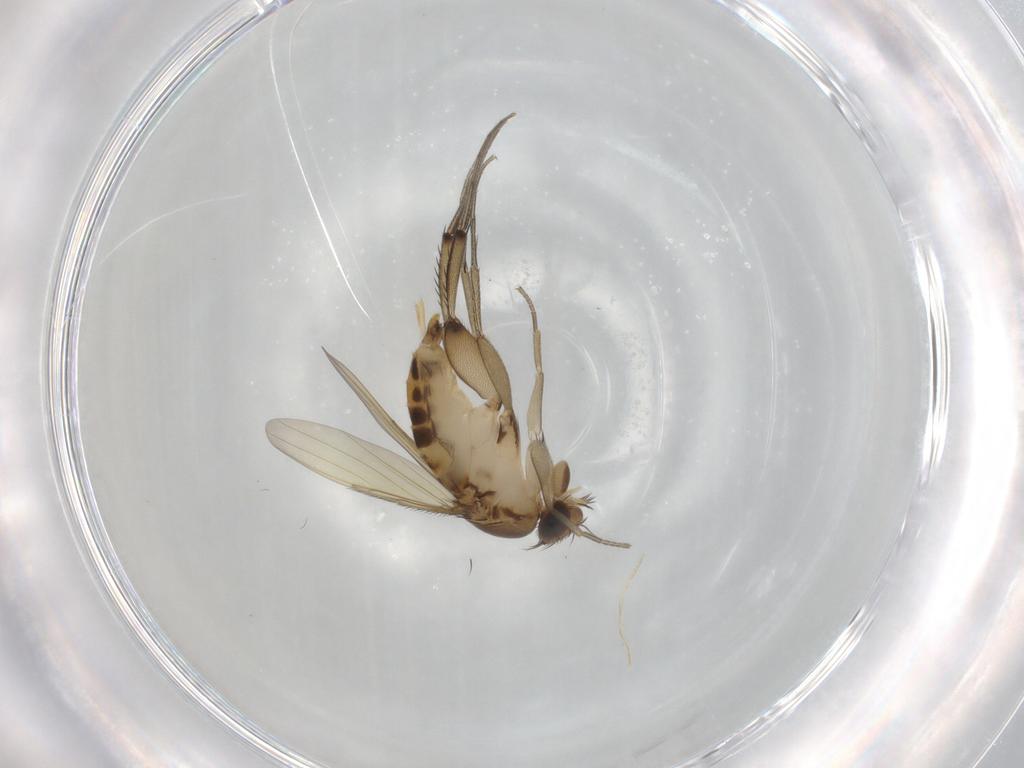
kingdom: Animalia
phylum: Arthropoda
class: Insecta
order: Diptera
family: Phoridae
